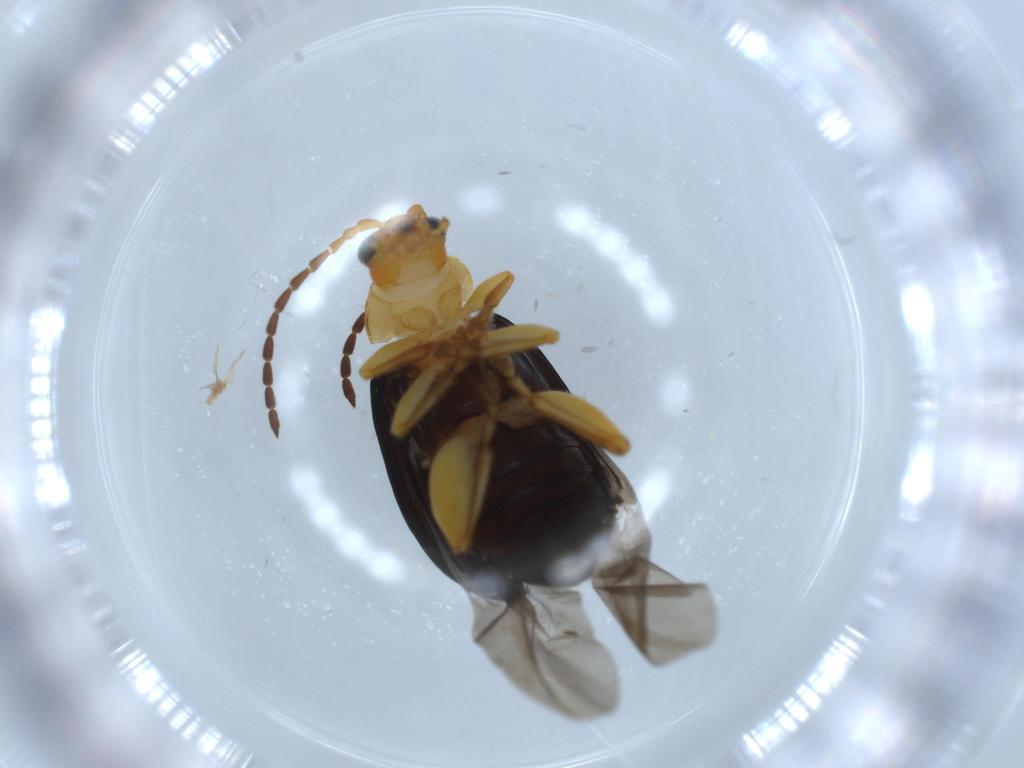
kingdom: Animalia
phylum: Arthropoda
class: Insecta
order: Coleoptera
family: Chrysomelidae
